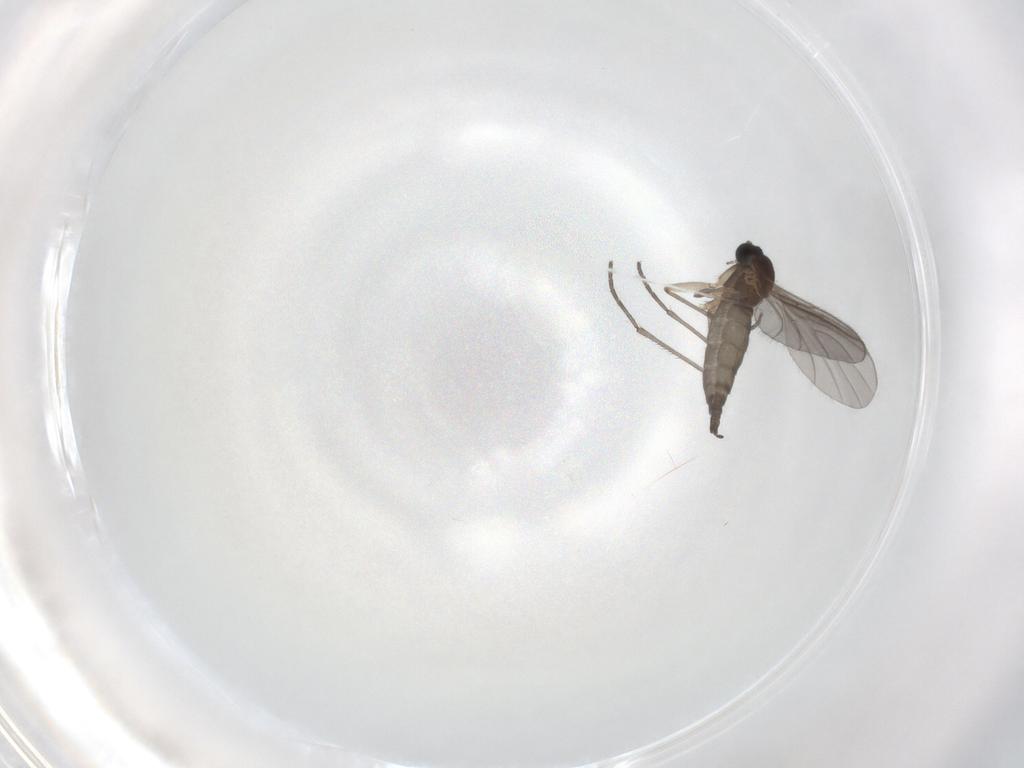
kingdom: Animalia
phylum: Arthropoda
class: Insecta
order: Diptera
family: Sciaridae
